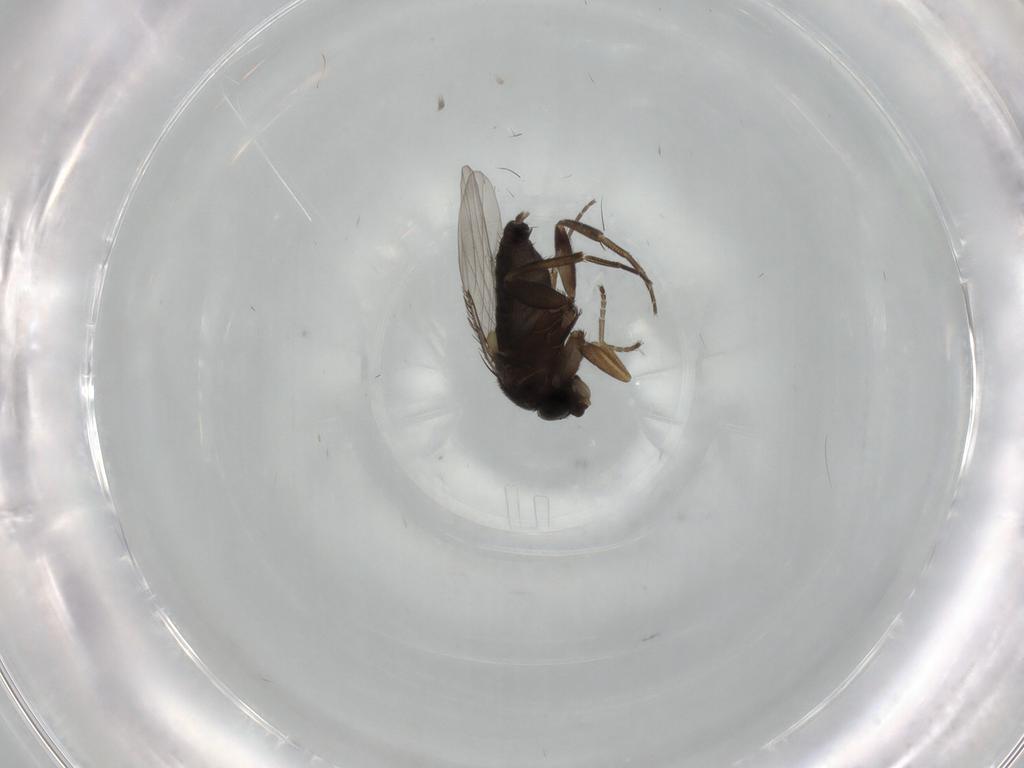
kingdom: Animalia
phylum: Arthropoda
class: Insecta
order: Diptera
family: Phoridae
